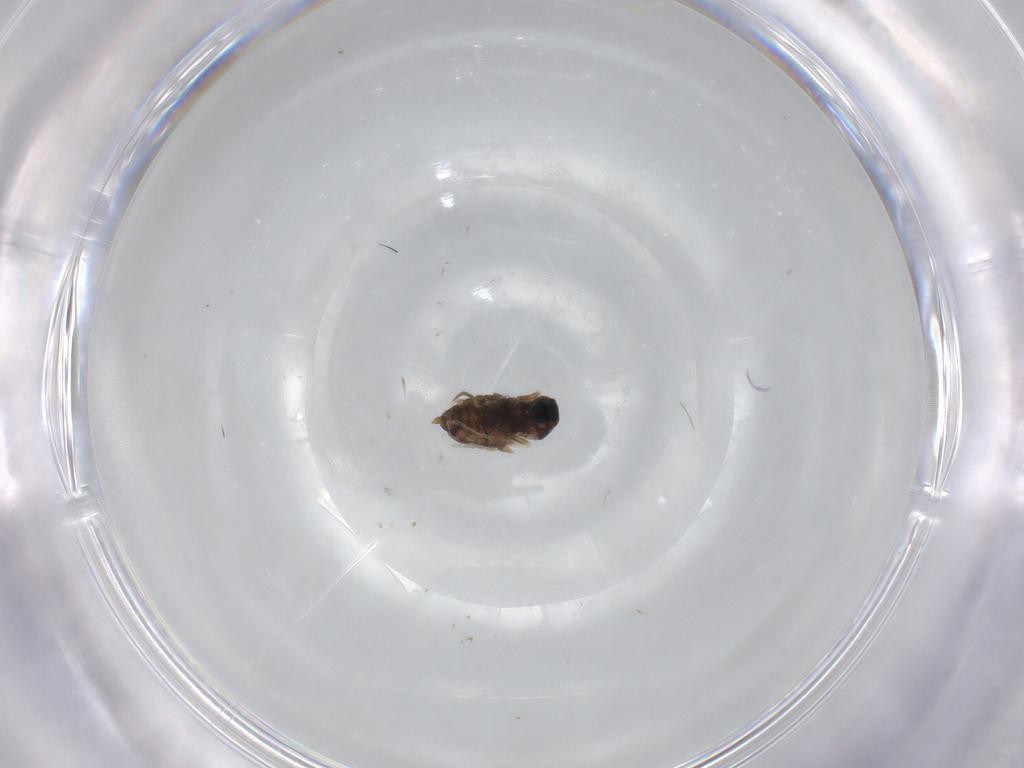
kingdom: Animalia
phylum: Arthropoda
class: Insecta
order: Diptera
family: Cecidomyiidae
